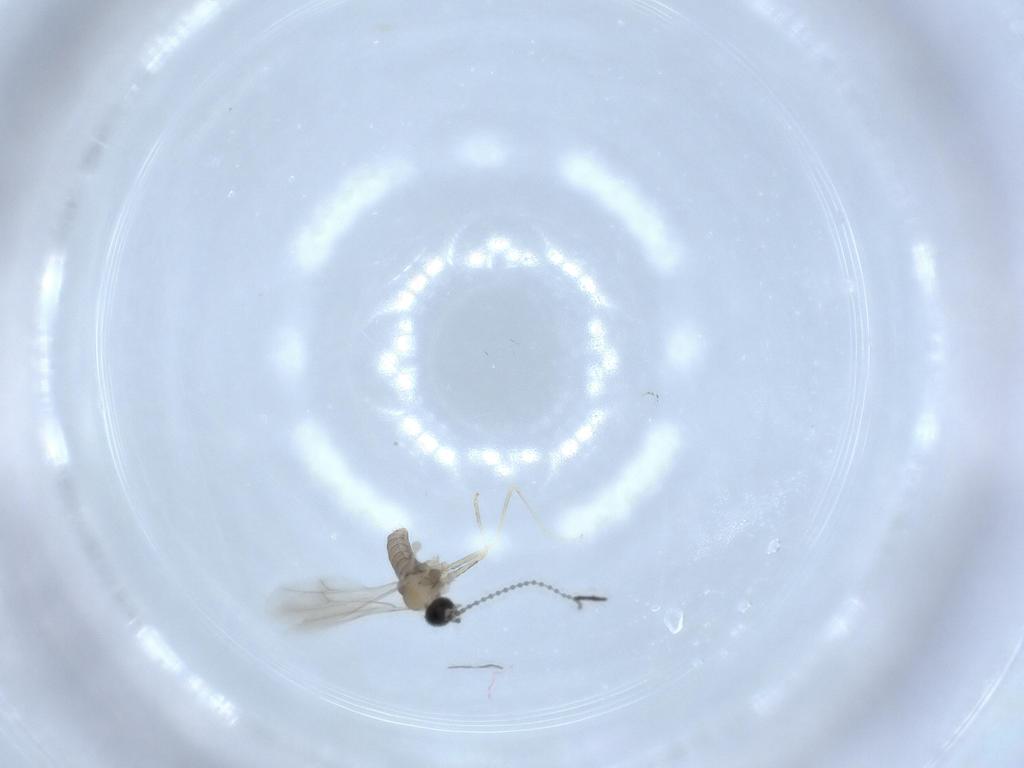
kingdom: Animalia
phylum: Arthropoda
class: Insecta
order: Diptera
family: Cecidomyiidae
